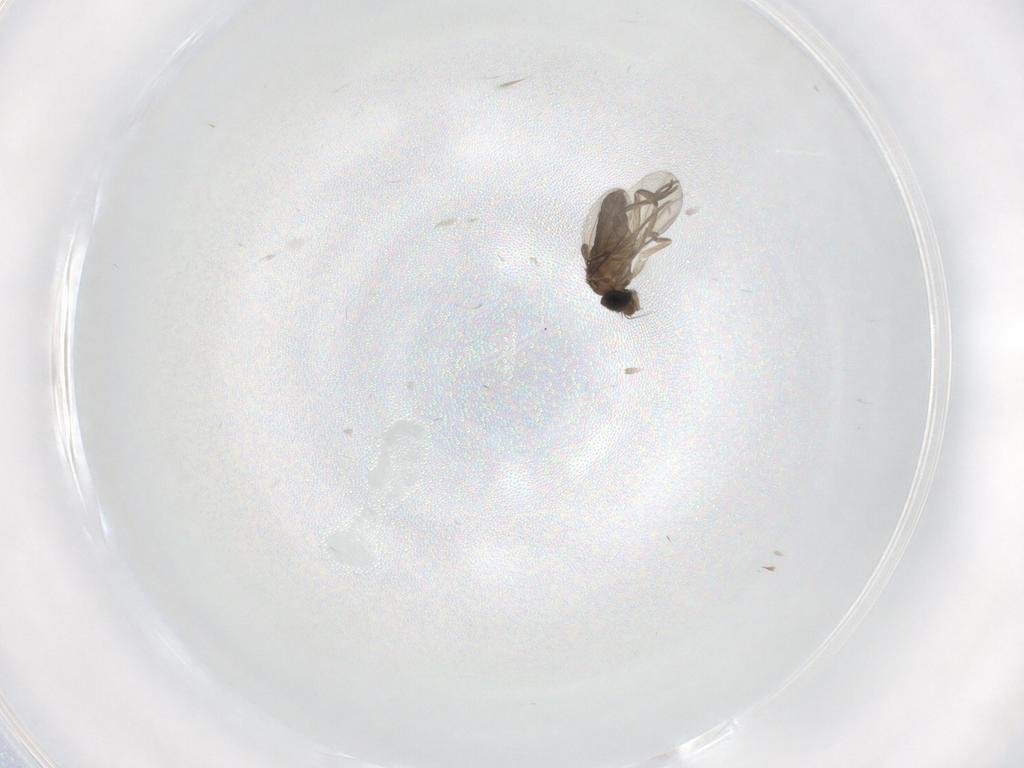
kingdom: Animalia
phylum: Arthropoda
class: Insecta
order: Diptera
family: Phoridae
